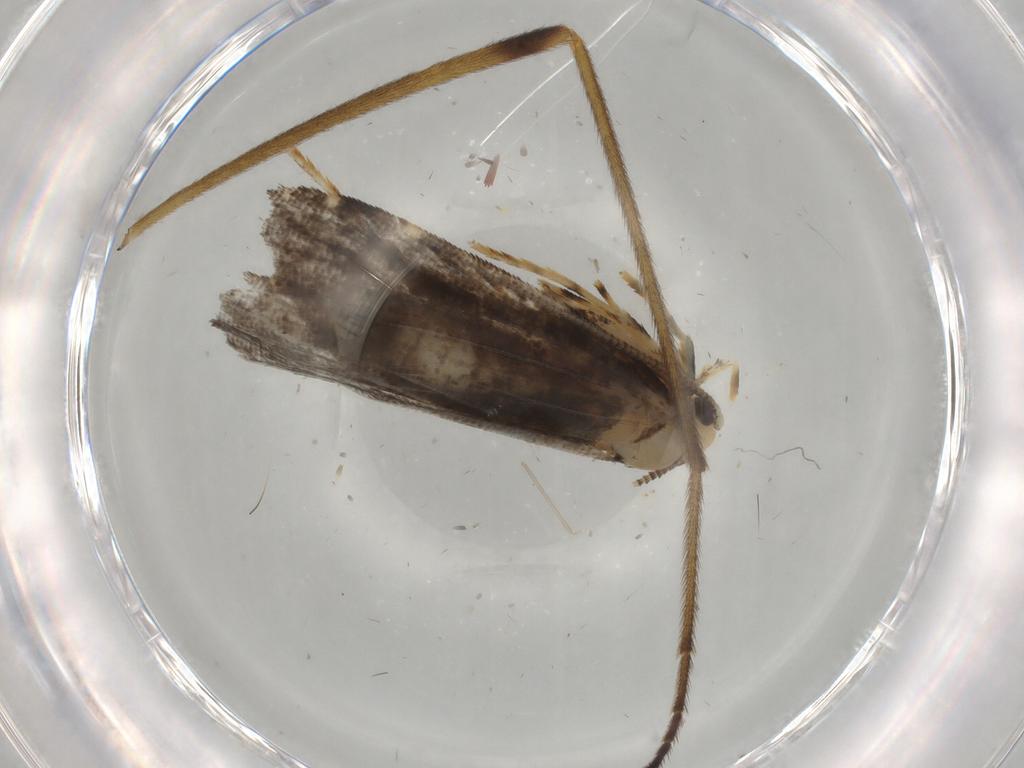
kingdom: Animalia
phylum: Arthropoda
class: Insecta
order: Lepidoptera
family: Tineidae
